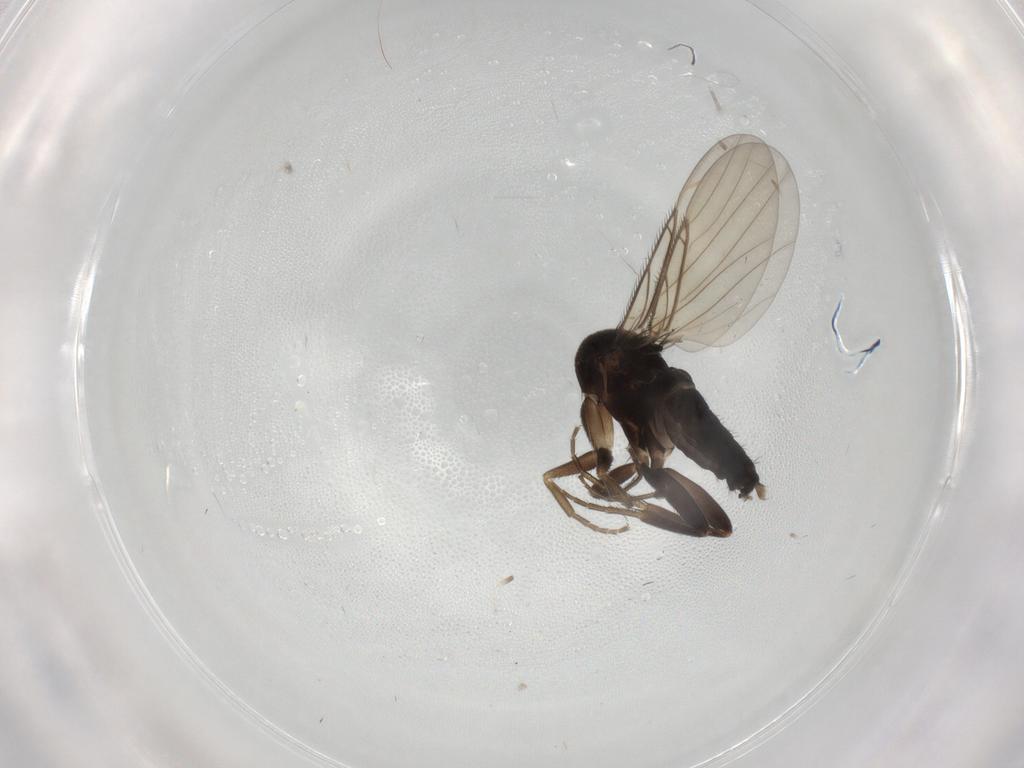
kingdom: Animalia
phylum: Arthropoda
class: Insecta
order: Diptera
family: Phoridae
